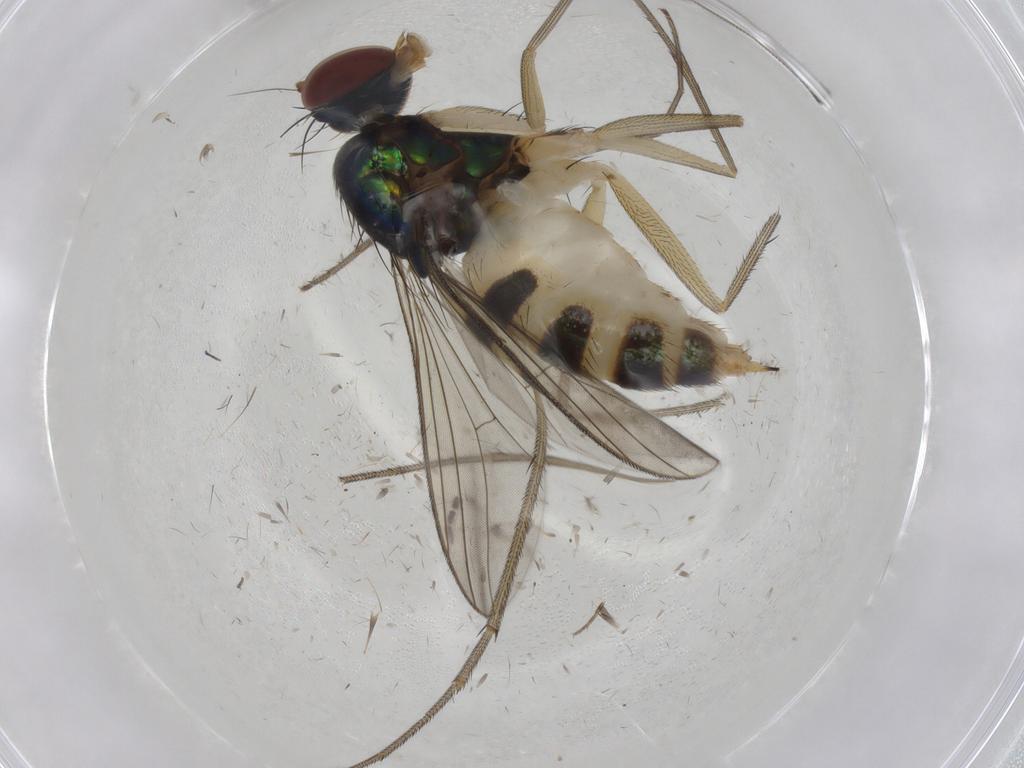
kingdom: Animalia
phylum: Arthropoda
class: Insecta
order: Diptera
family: Dolichopodidae
